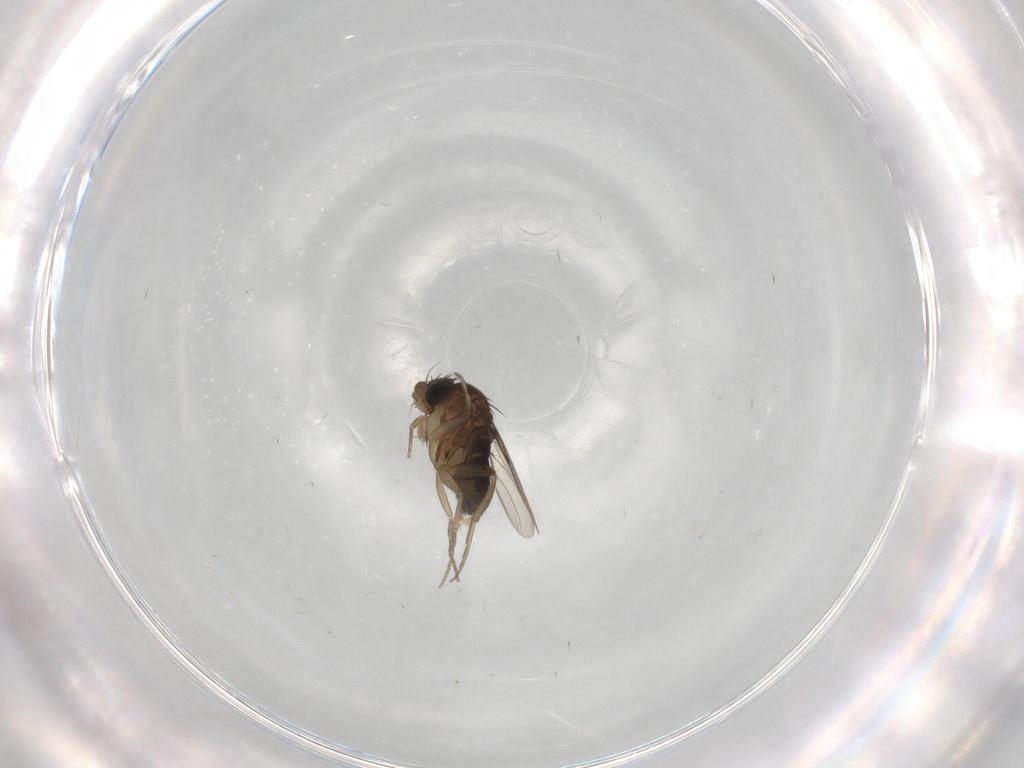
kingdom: Animalia
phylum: Arthropoda
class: Insecta
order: Diptera
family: Phoridae
